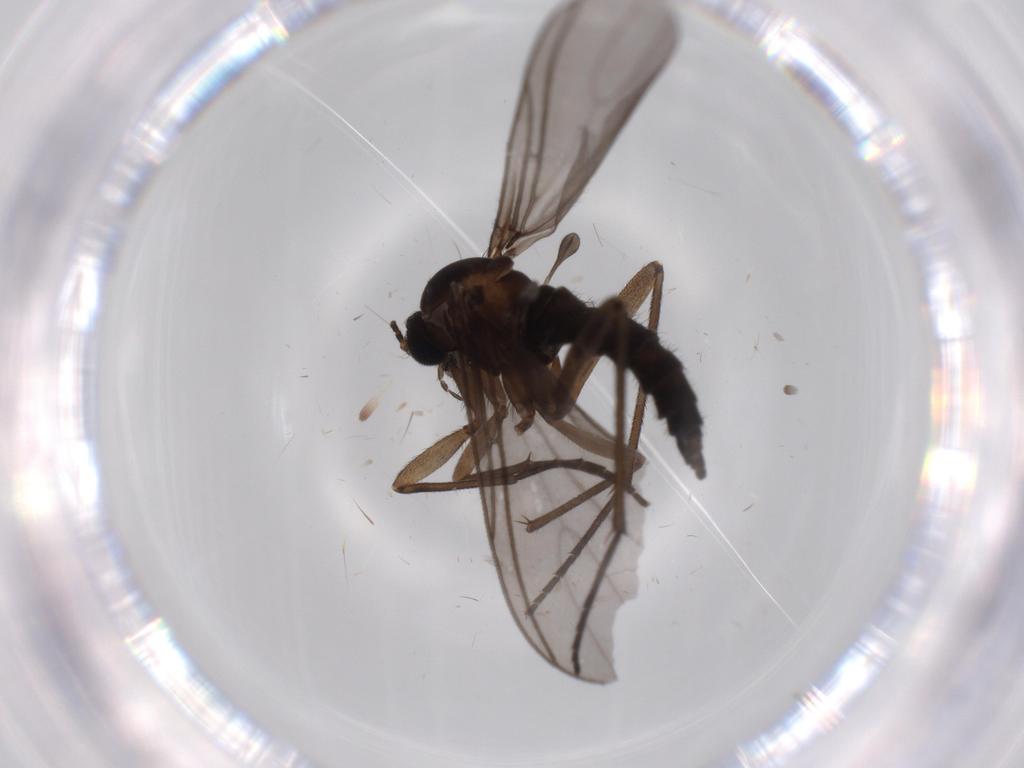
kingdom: Animalia
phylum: Arthropoda
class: Insecta
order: Diptera
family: Sciaridae
